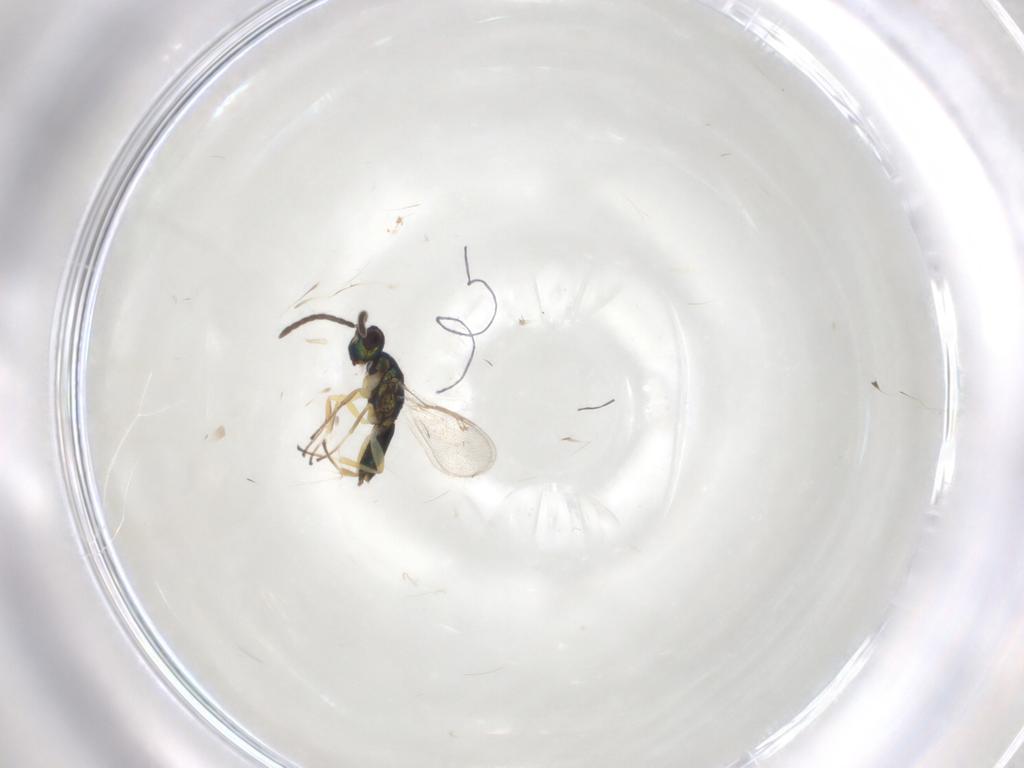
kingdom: Animalia
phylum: Arthropoda
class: Insecta
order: Hymenoptera
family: Eupelmidae
